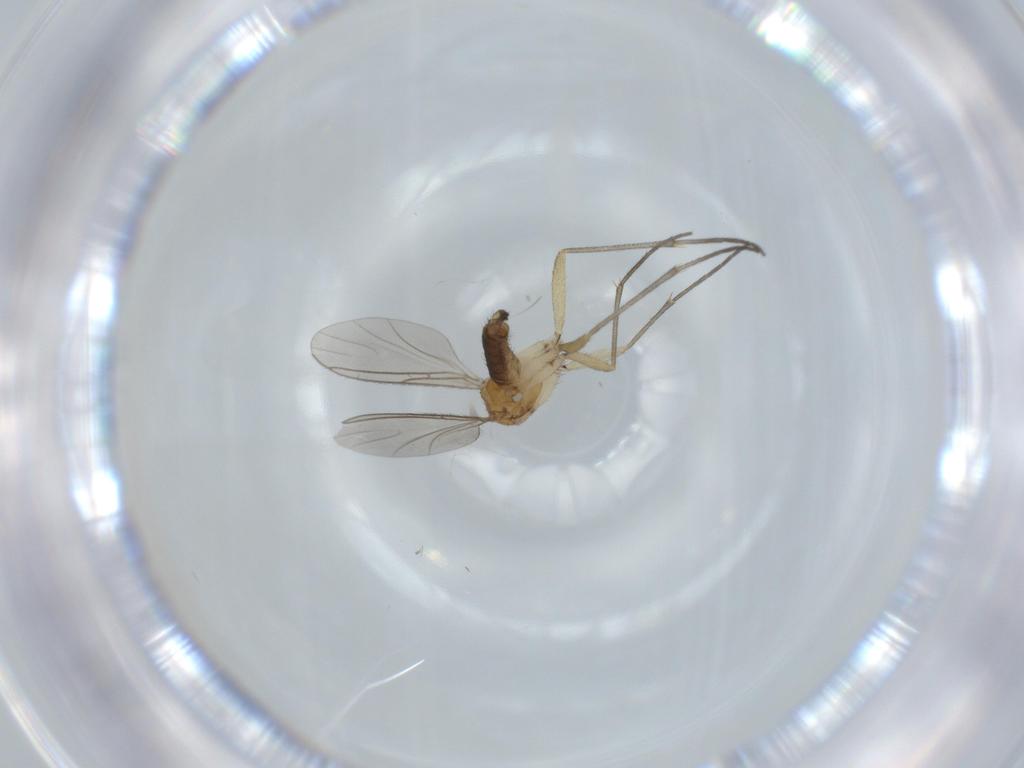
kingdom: Animalia
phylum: Arthropoda
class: Insecta
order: Diptera
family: Sciaridae
